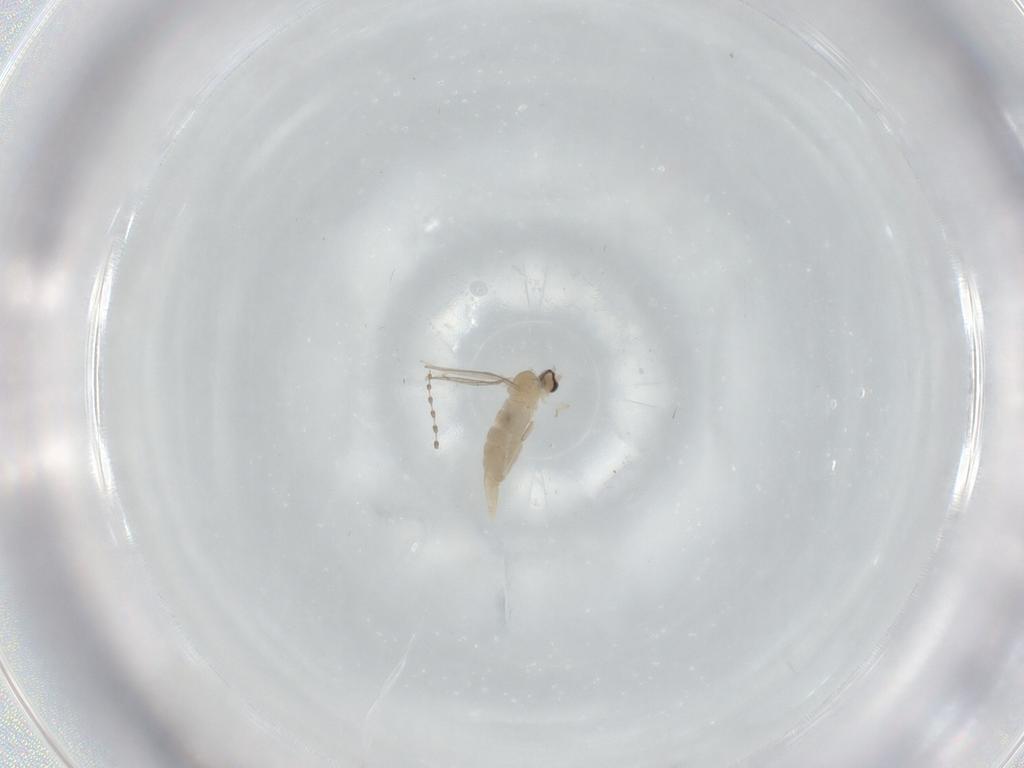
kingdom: Animalia
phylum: Arthropoda
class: Insecta
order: Diptera
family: Cecidomyiidae
